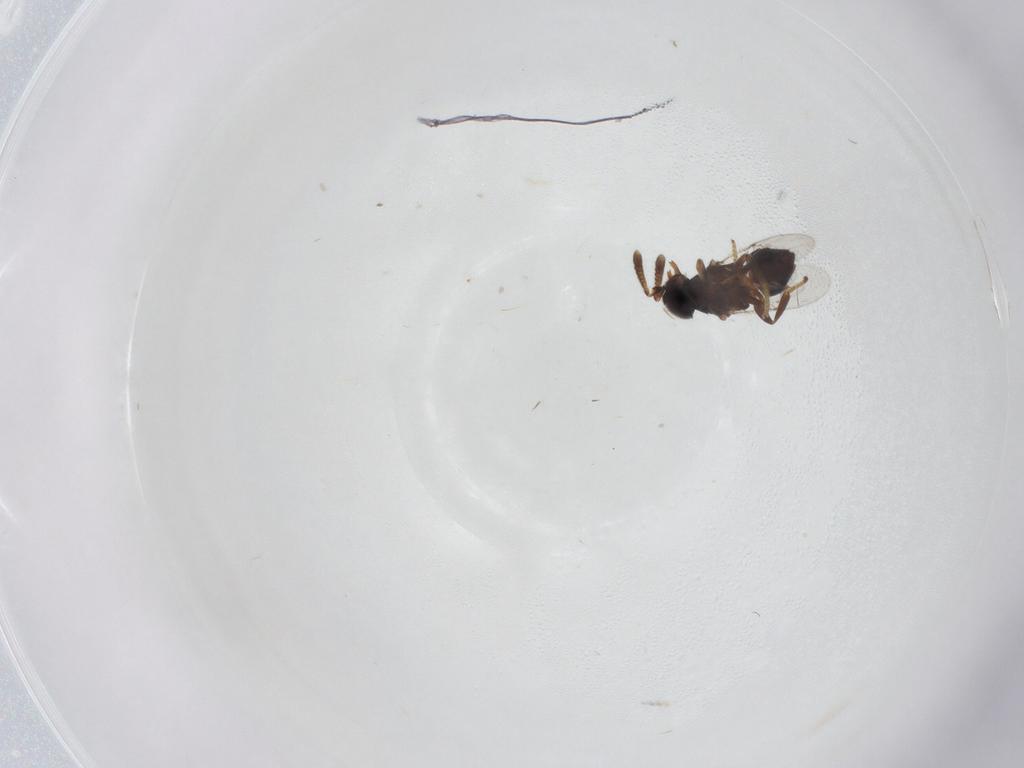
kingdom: Animalia
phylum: Arthropoda
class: Insecta
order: Hymenoptera
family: Encyrtidae
